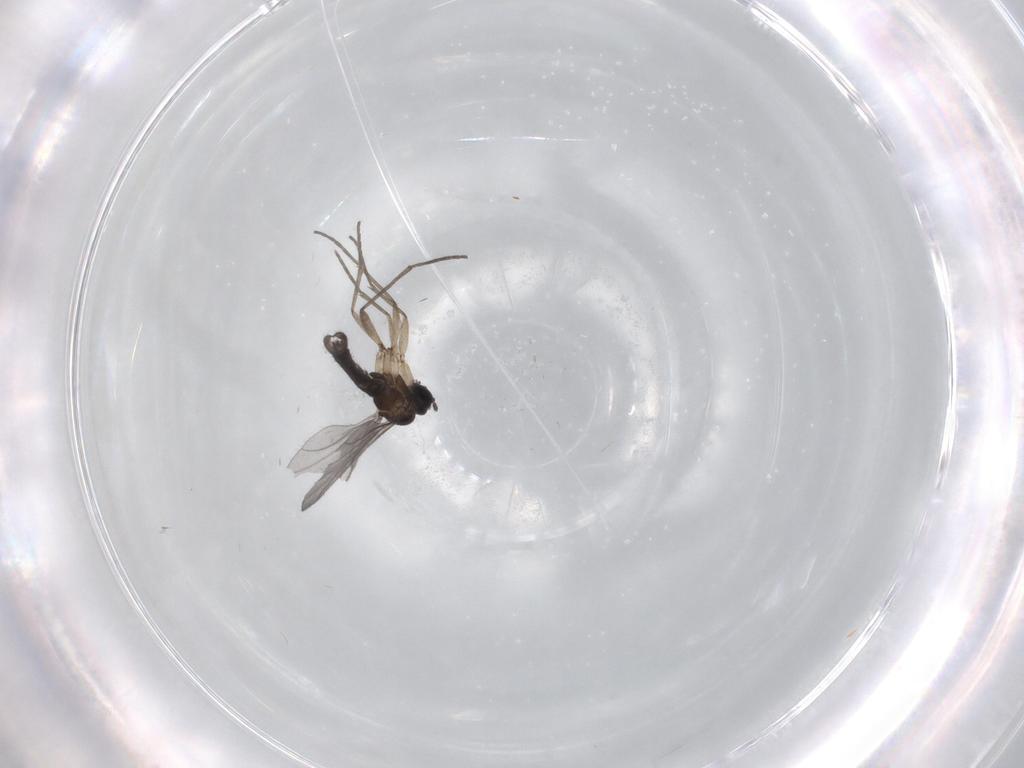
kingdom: Animalia
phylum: Arthropoda
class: Insecta
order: Diptera
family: Sciaridae
